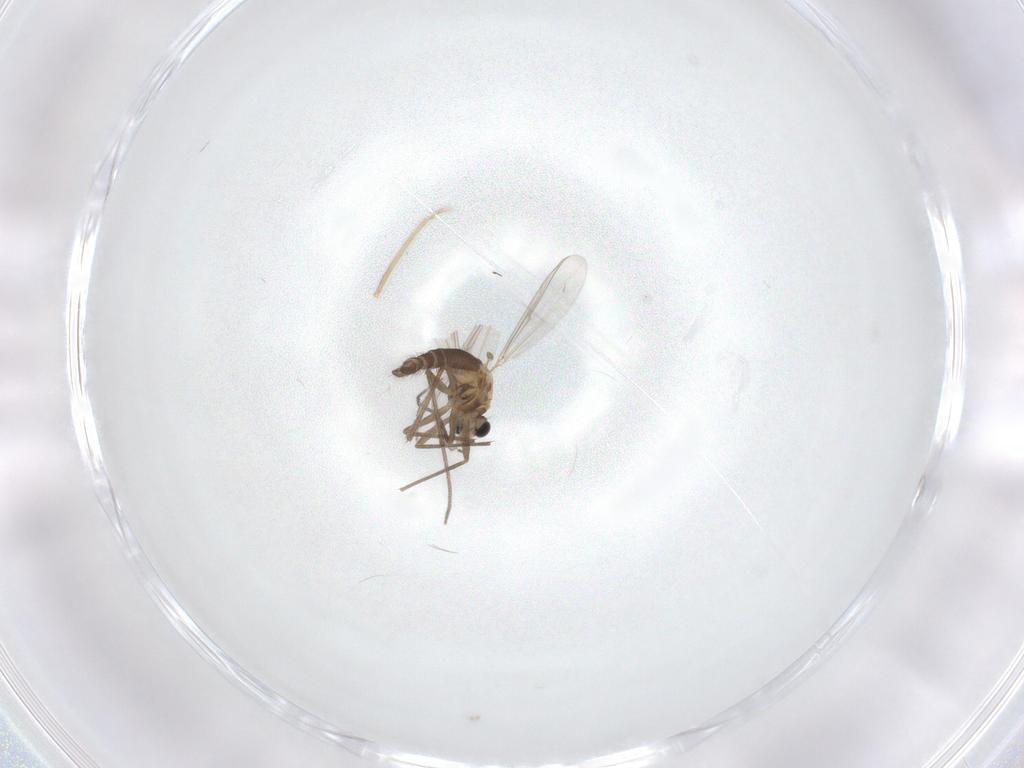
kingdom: Animalia
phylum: Arthropoda
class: Insecta
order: Diptera
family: Chironomidae
